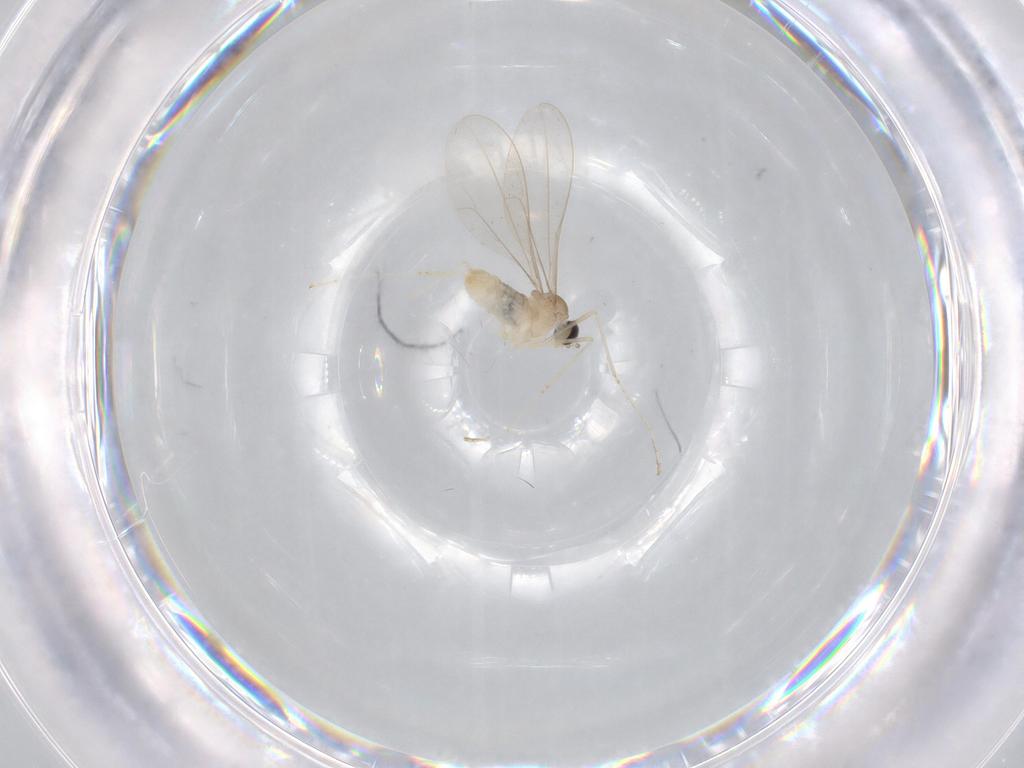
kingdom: Animalia
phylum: Arthropoda
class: Insecta
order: Diptera
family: Cecidomyiidae
